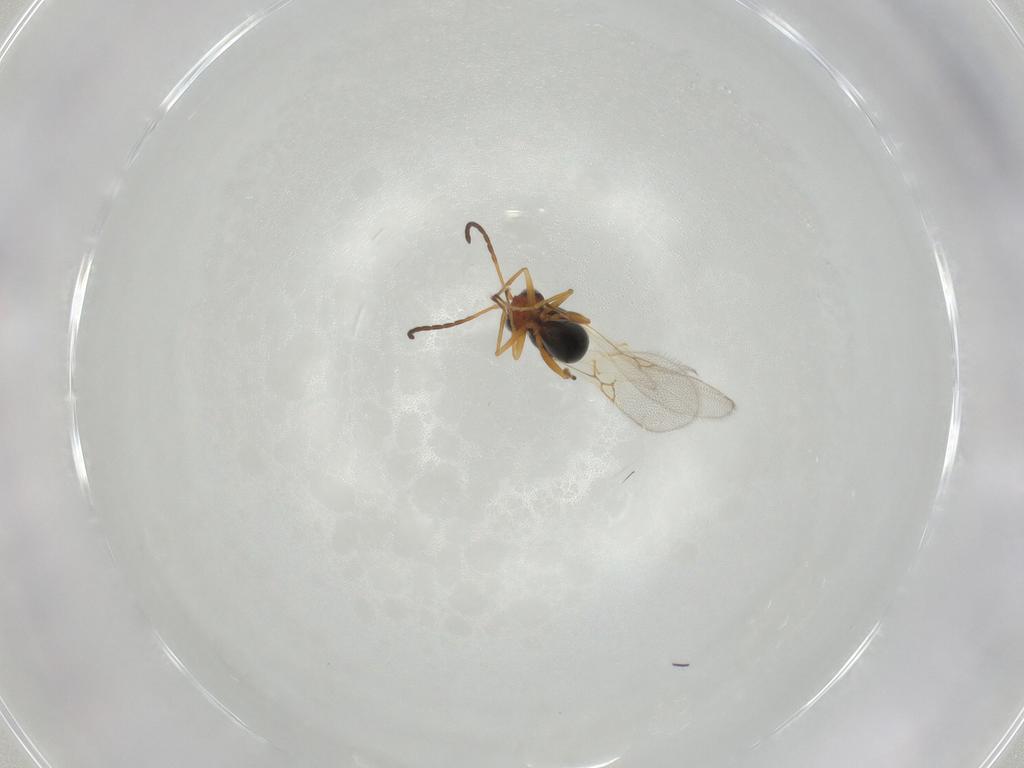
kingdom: Animalia
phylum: Arthropoda
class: Insecta
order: Hymenoptera
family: Figitidae
